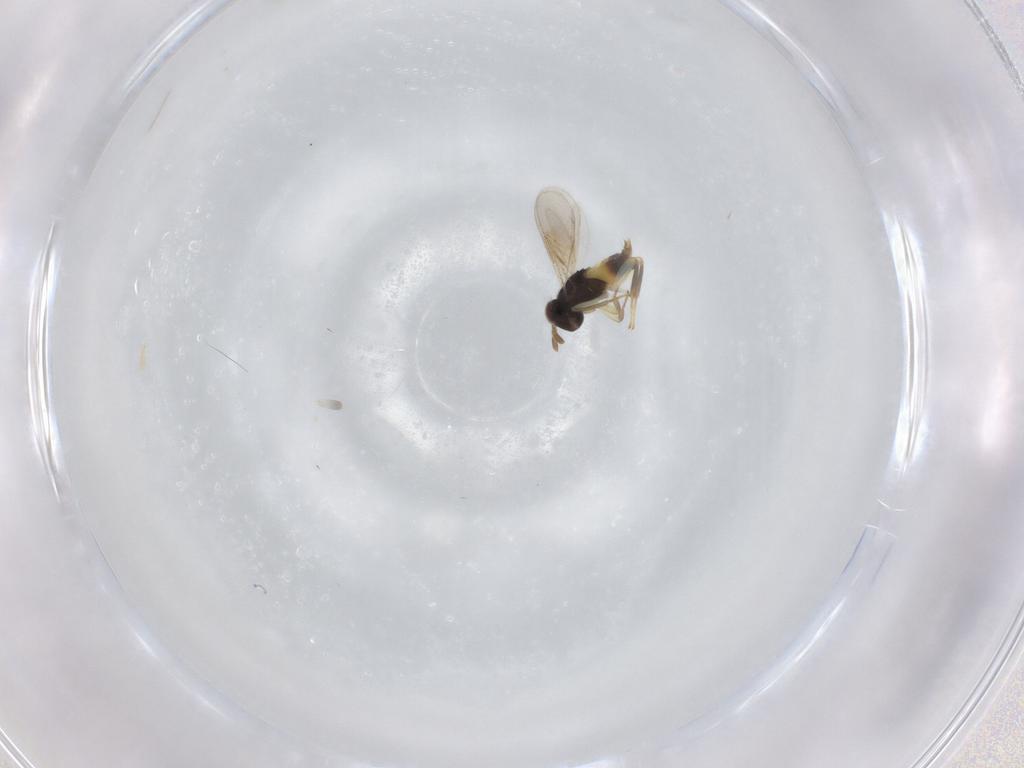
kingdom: Animalia
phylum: Arthropoda
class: Insecta
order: Hymenoptera
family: Aphelinidae
